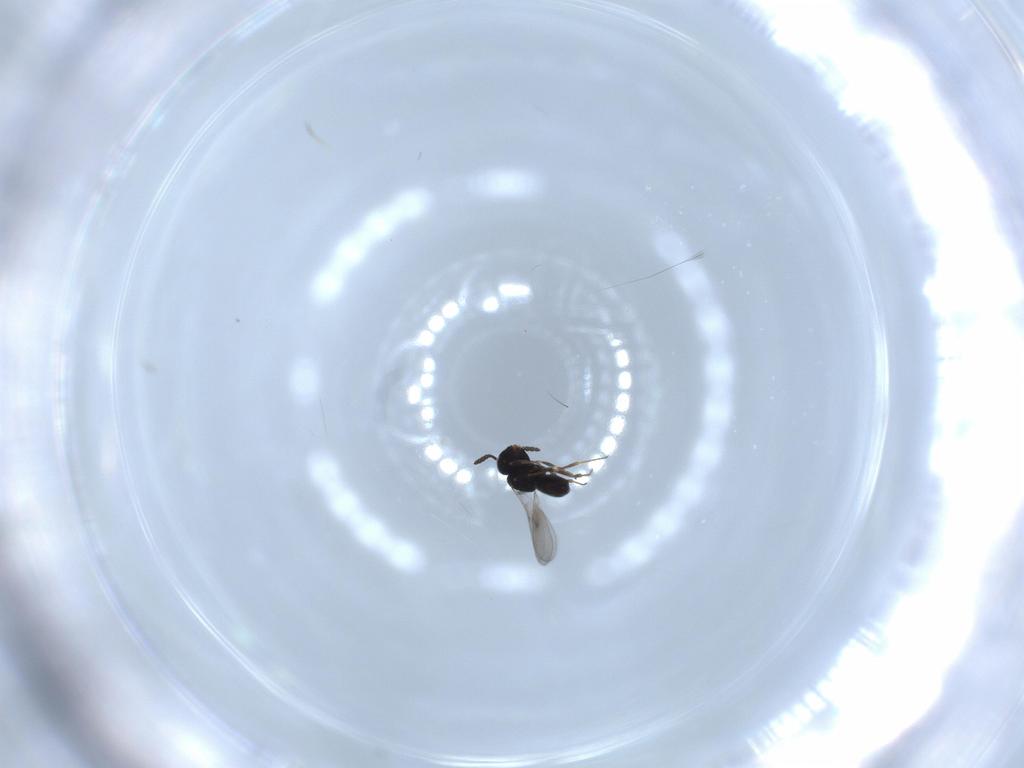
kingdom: Animalia
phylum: Arthropoda
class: Insecta
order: Hymenoptera
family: Scelionidae
